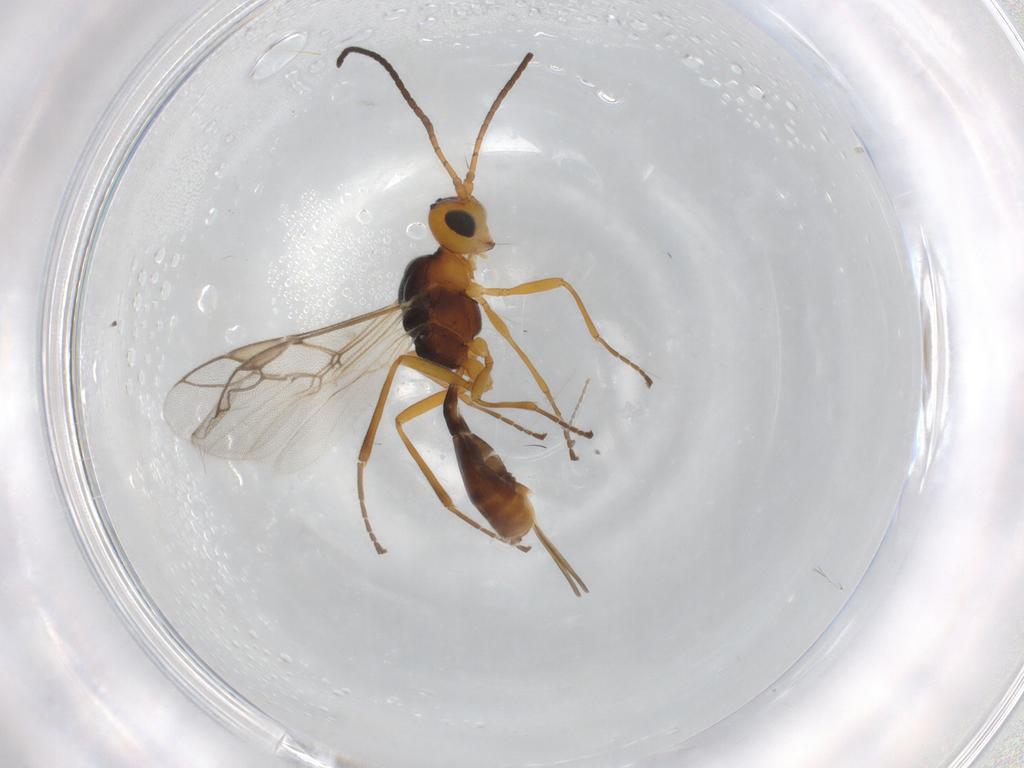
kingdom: Animalia
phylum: Arthropoda
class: Insecta
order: Hymenoptera
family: Braconidae
